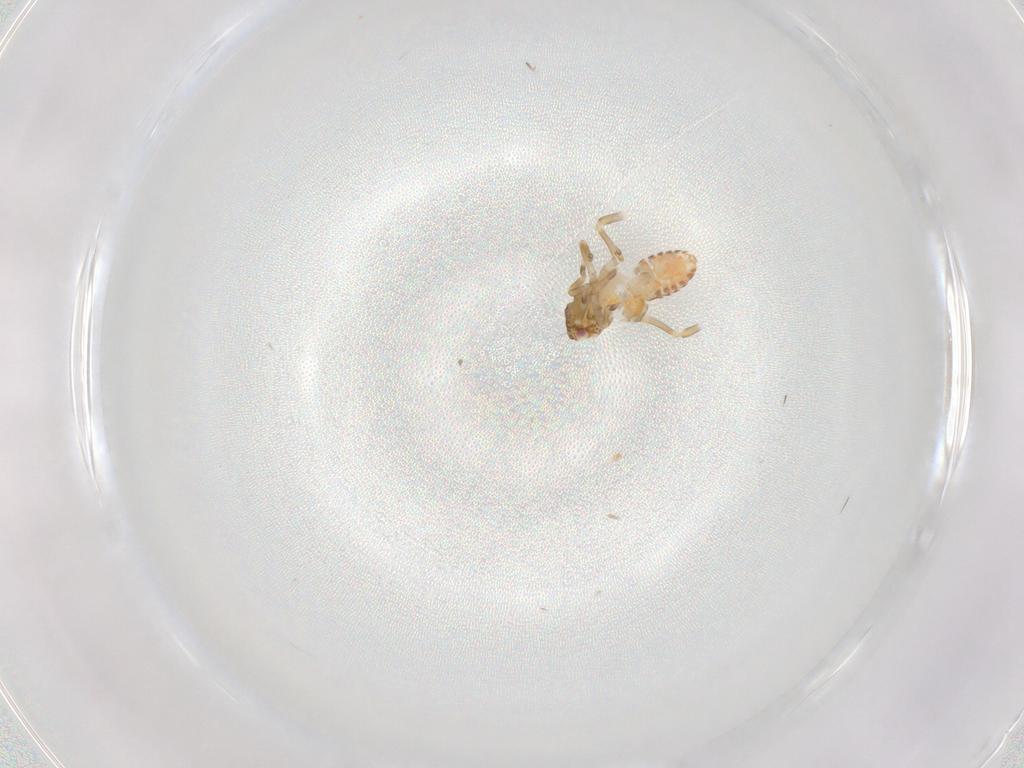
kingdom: Animalia
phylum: Arthropoda
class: Insecta
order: Hemiptera
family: Flatidae
